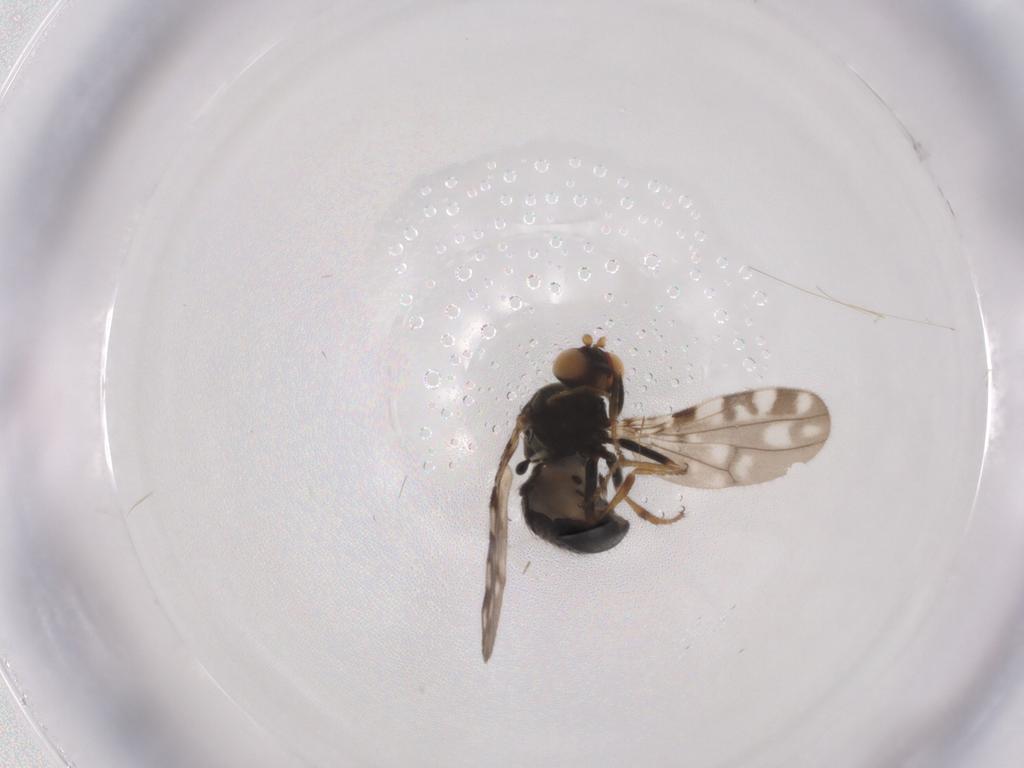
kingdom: Animalia
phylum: Arthropoda
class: Insecta
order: Diptera
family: Muscidae
